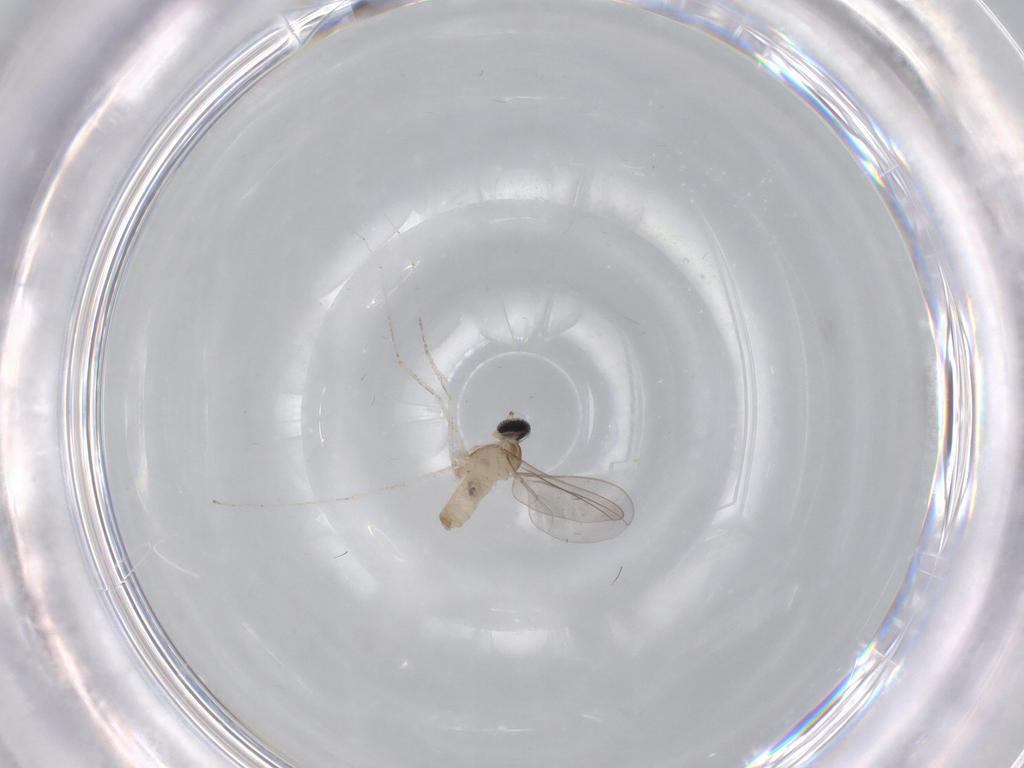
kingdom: Animalia
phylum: Arthropoda
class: Insecta
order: Diptera
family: Cecidomyiidae
